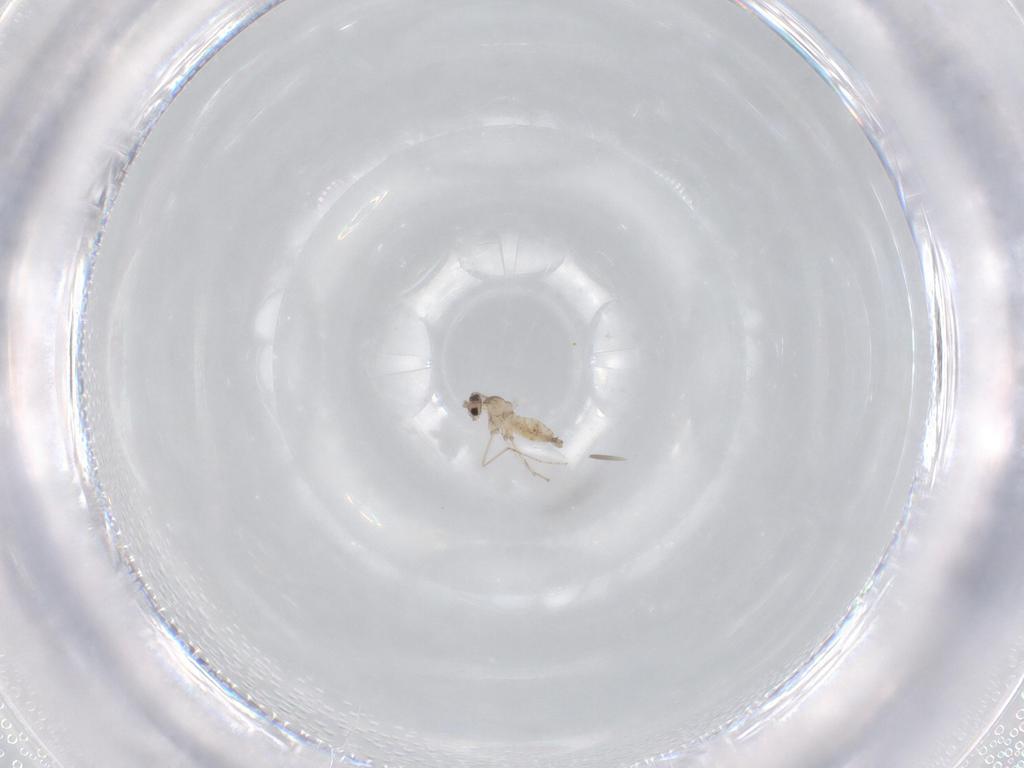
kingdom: Animalia
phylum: Arthropoda
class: Insecta
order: Diptera
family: Cecidomyiidae
